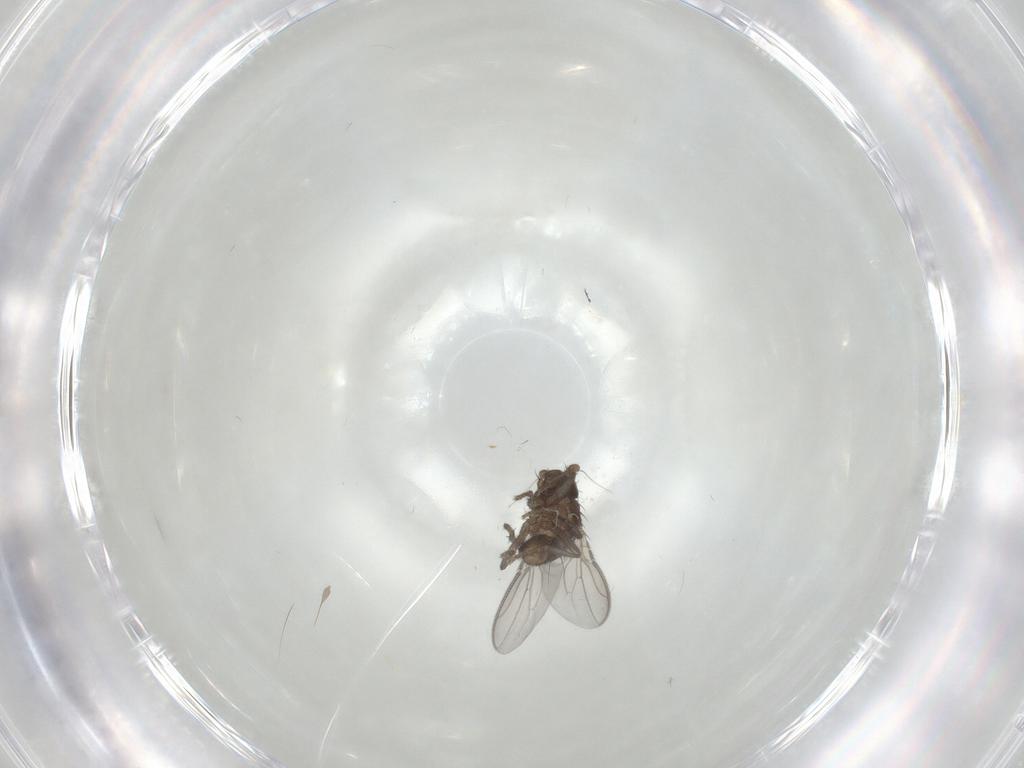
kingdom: Animalia
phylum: Arthropoda
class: Insecta
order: Diptera
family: Sphaeroceridae
